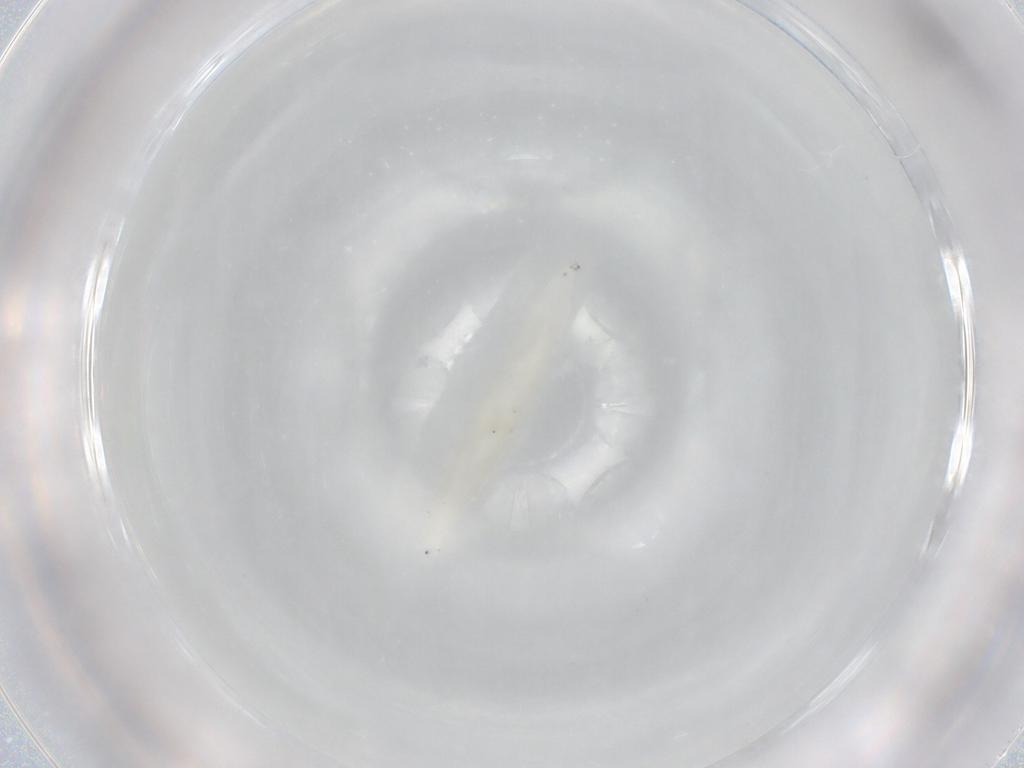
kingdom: Animalia
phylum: Arthropoda
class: Insecta
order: Diptera
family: Cecidomyiidae
